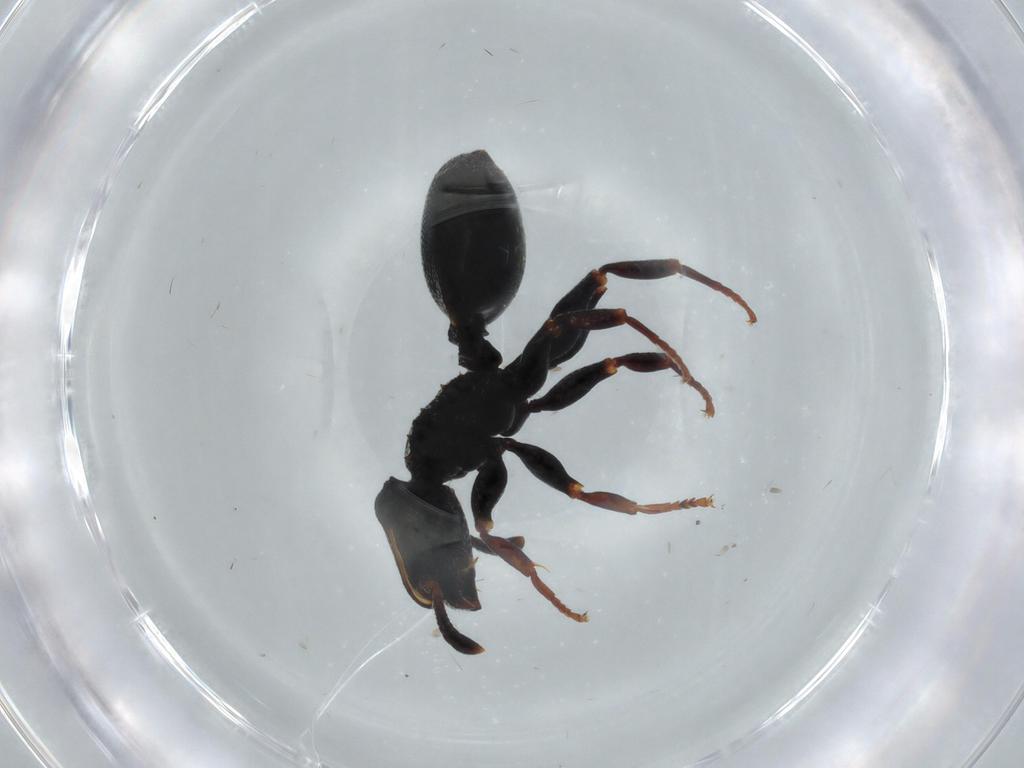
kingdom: Animalia
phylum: Arthropoda
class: Insecta
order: Hymenoptera
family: Formicidae
